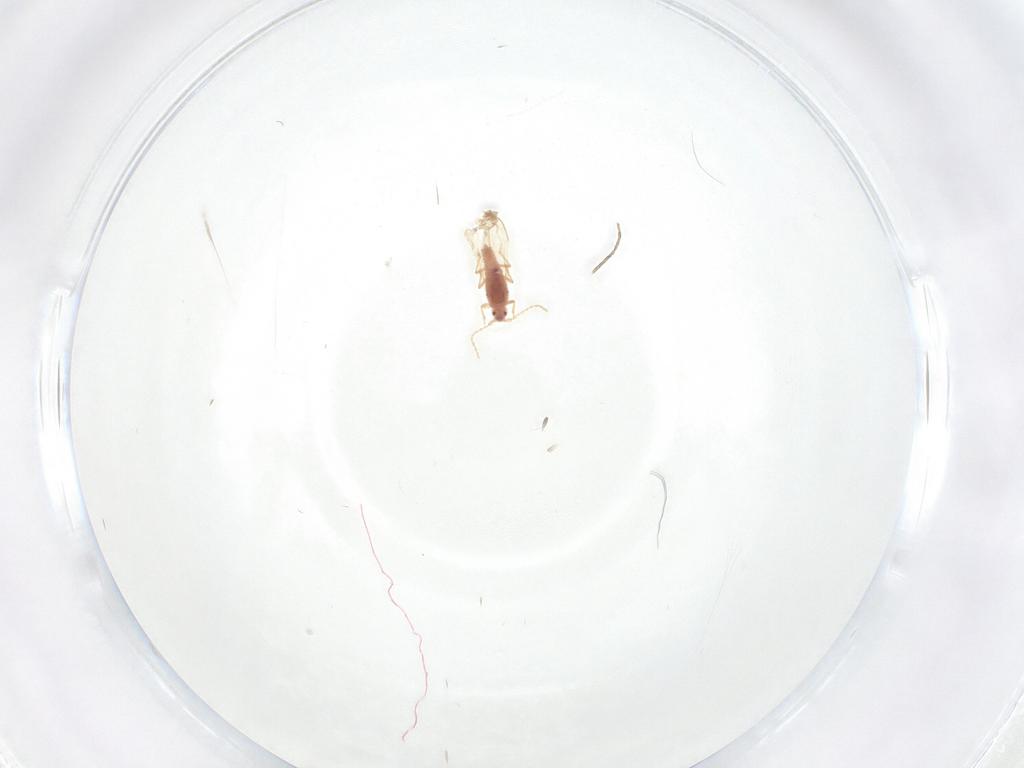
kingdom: Animalia
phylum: Arthropoda
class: Insecta
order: Diptera
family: Cecidomyiidae
